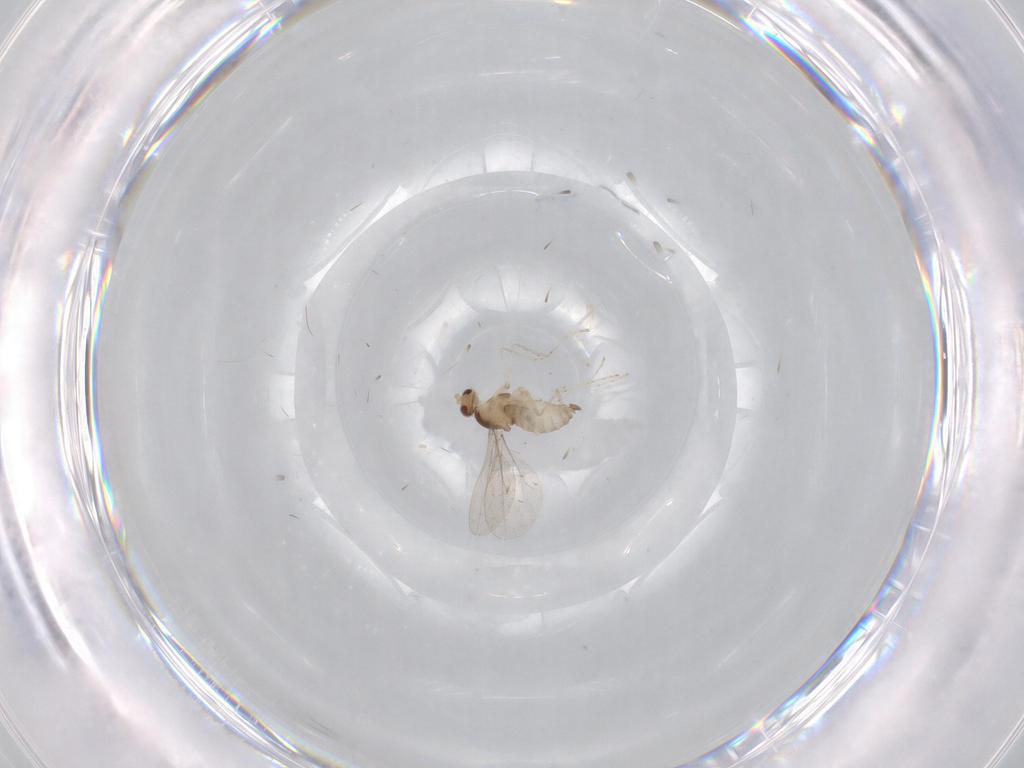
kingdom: Animalia
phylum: Arthropoda
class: Insecta
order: Diptera
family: Cecidomyiidae
